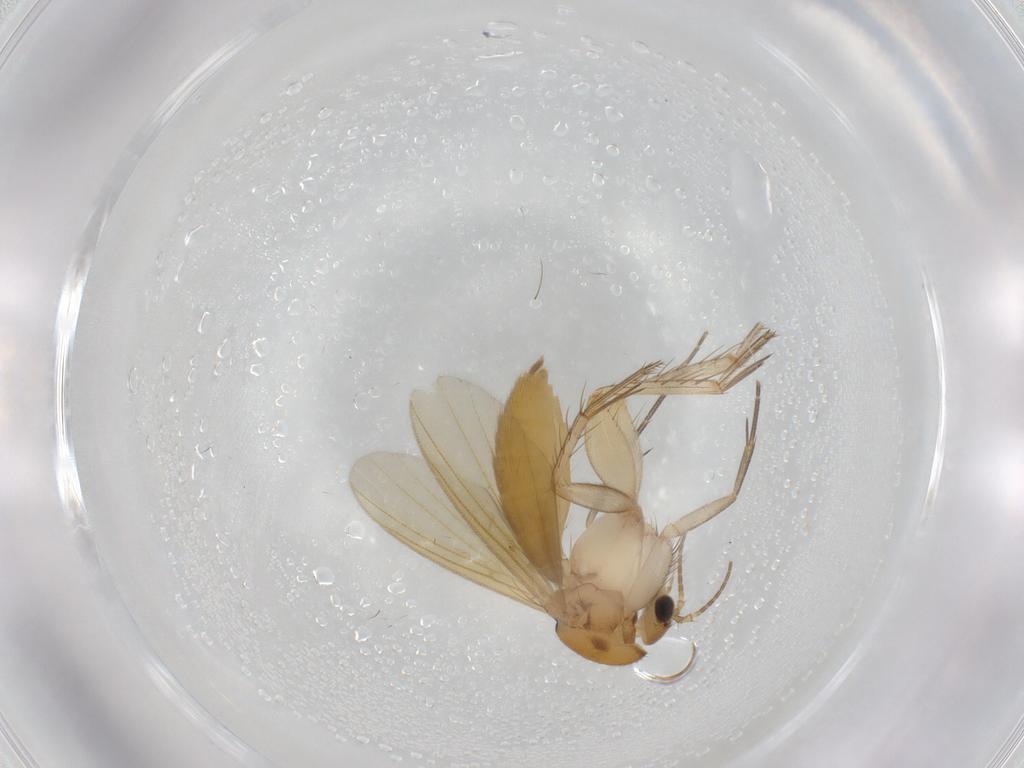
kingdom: Animalia
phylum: Arthropoda
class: Insecta
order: Diptera
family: Mycetophilidae
